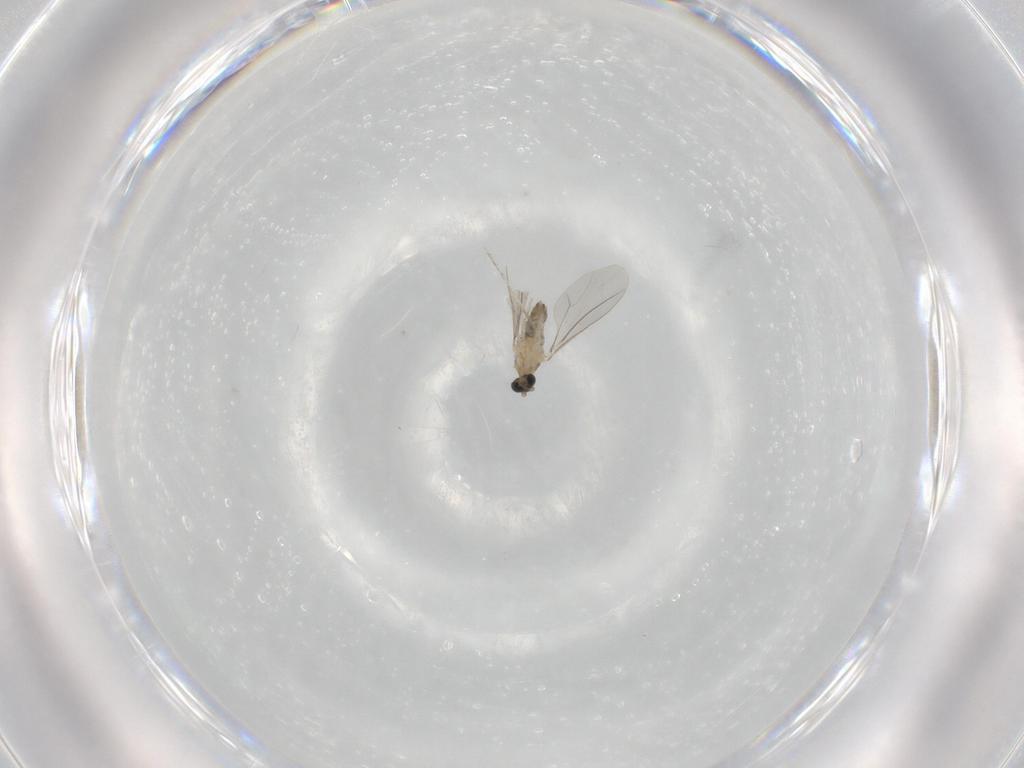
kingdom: Animalia
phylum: Arthropoda
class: Insecta
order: Diptera
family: Cecidomyiidae
